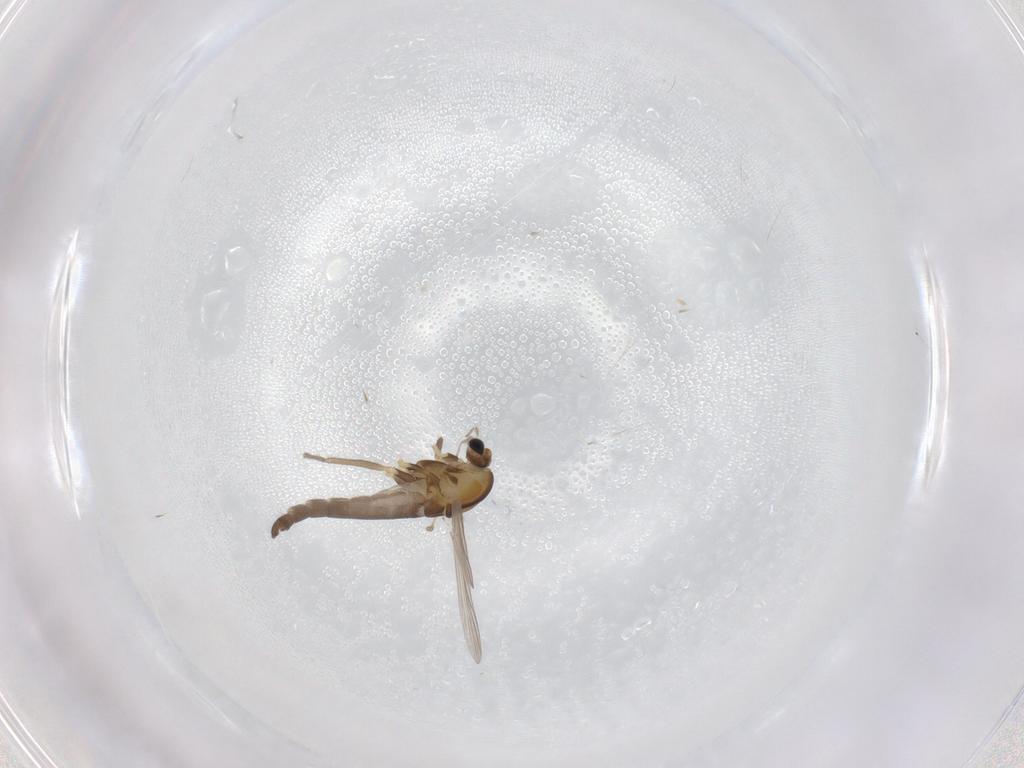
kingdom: Animalia
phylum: Arthropoda
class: Insecta
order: Diptera
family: Chironomidae
